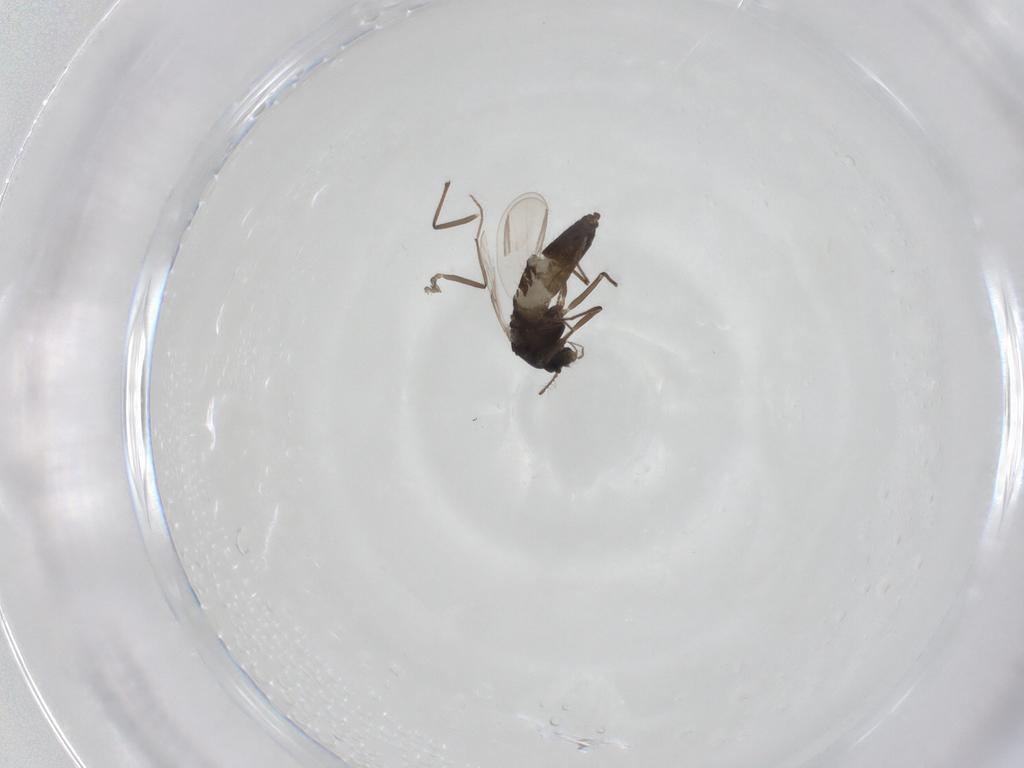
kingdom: Animalia
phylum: Arthropoda
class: Insecta
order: Diptera
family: Chironomidae
